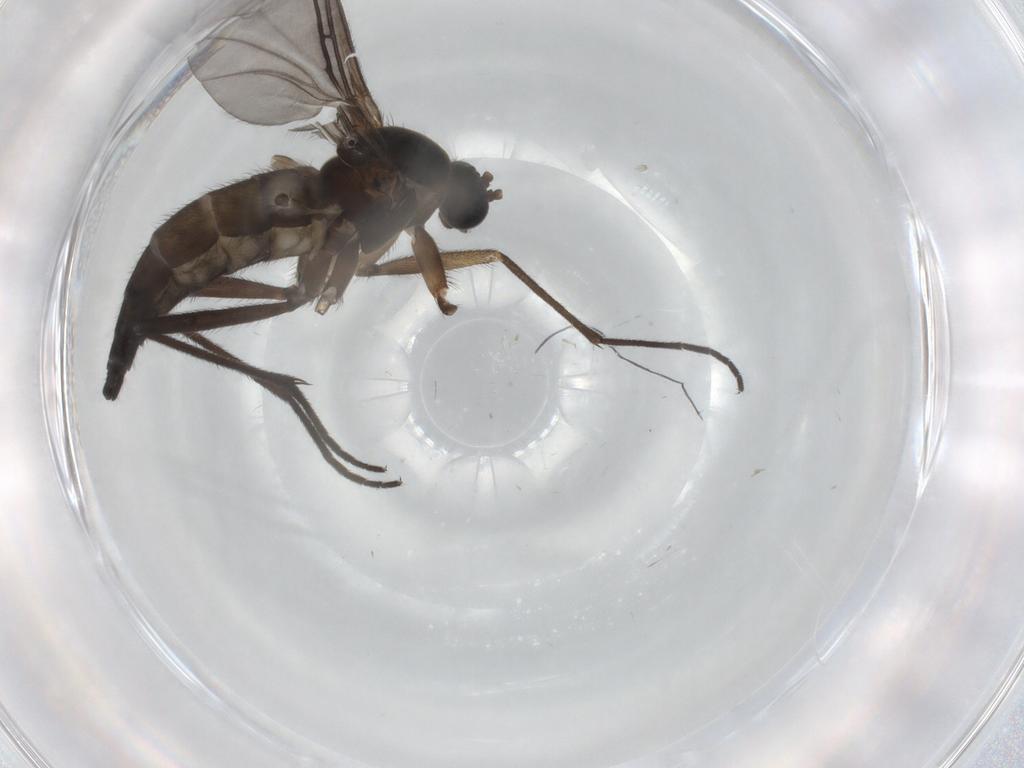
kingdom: Animalia
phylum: Arthropoda
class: Insecta
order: Diptera
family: Sciaridae
